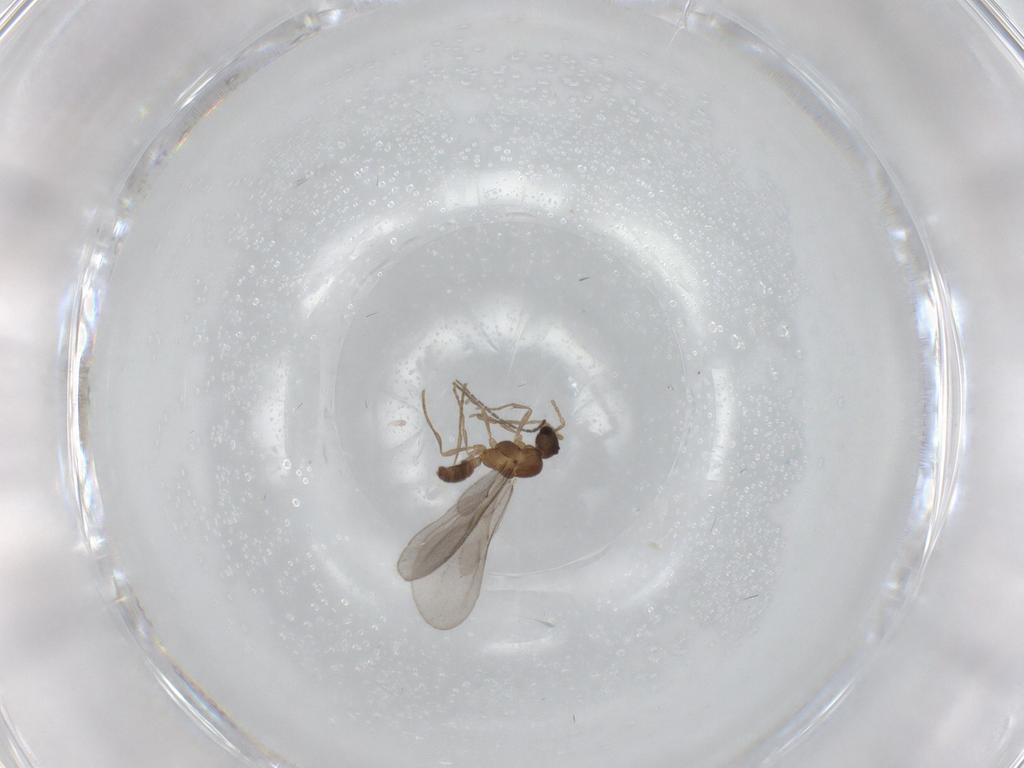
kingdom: Animalia
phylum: Arthropoda
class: Insecta
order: Hymenoptera
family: Formicidae
